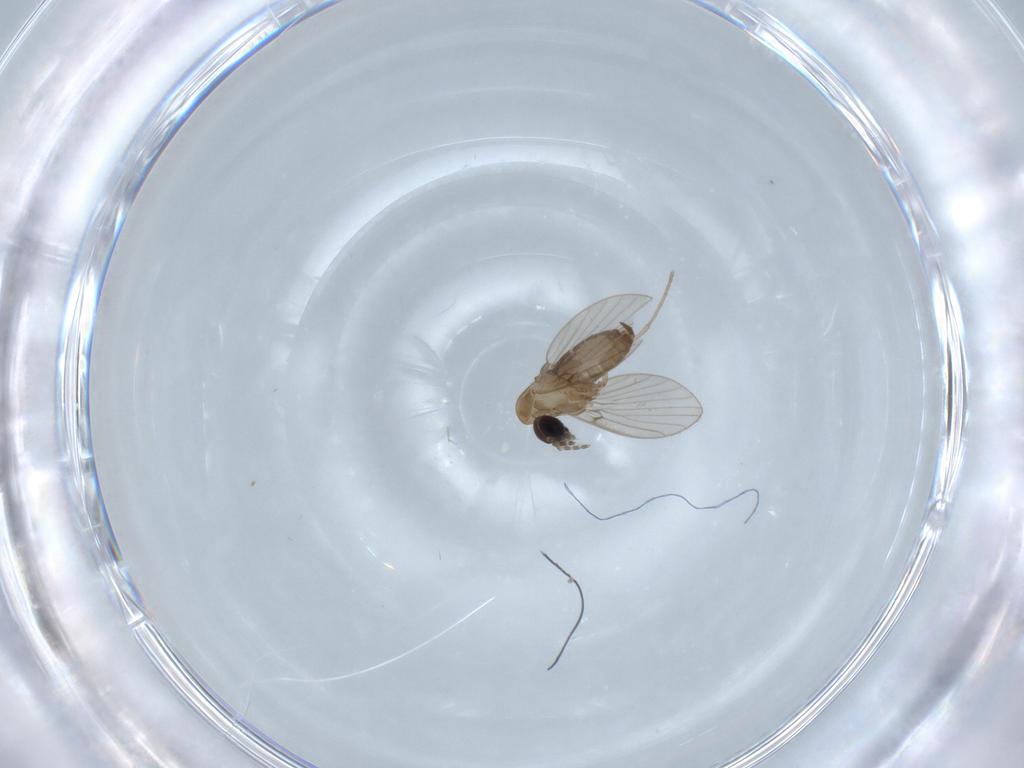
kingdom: Animalia
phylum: Arthropoda
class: Insecta
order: Diptera
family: Psychodidae
